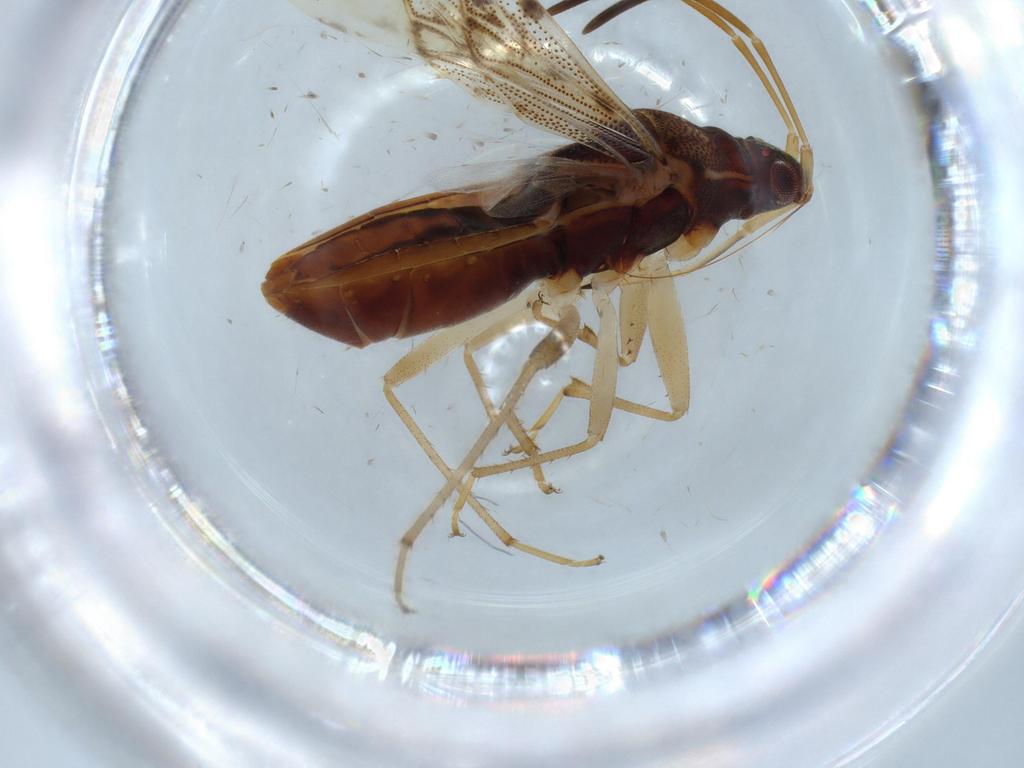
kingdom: Animalia
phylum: Arthropoda
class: Insecta
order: Hemiptera
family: Rhyparochromidae
